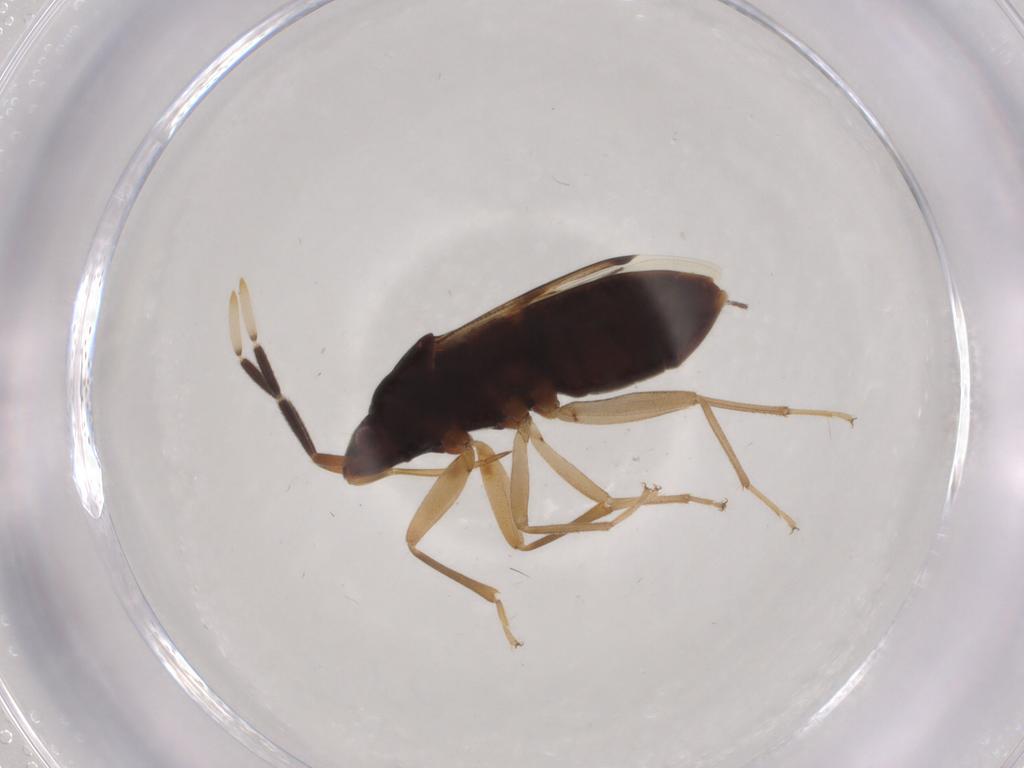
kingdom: Animalia
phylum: Arthropoda
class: Insecta
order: Hemiptera
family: Rhyparochromidae
